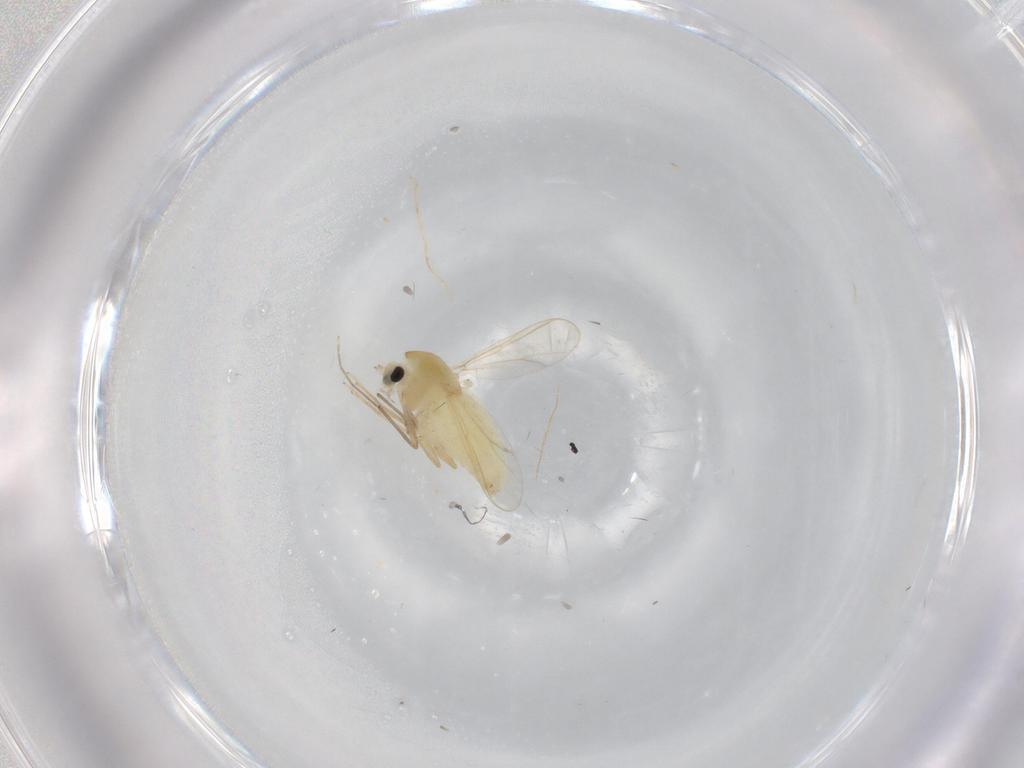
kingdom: Animalia
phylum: Arthropoda
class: Insecta
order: Diptera
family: Chironomidae
